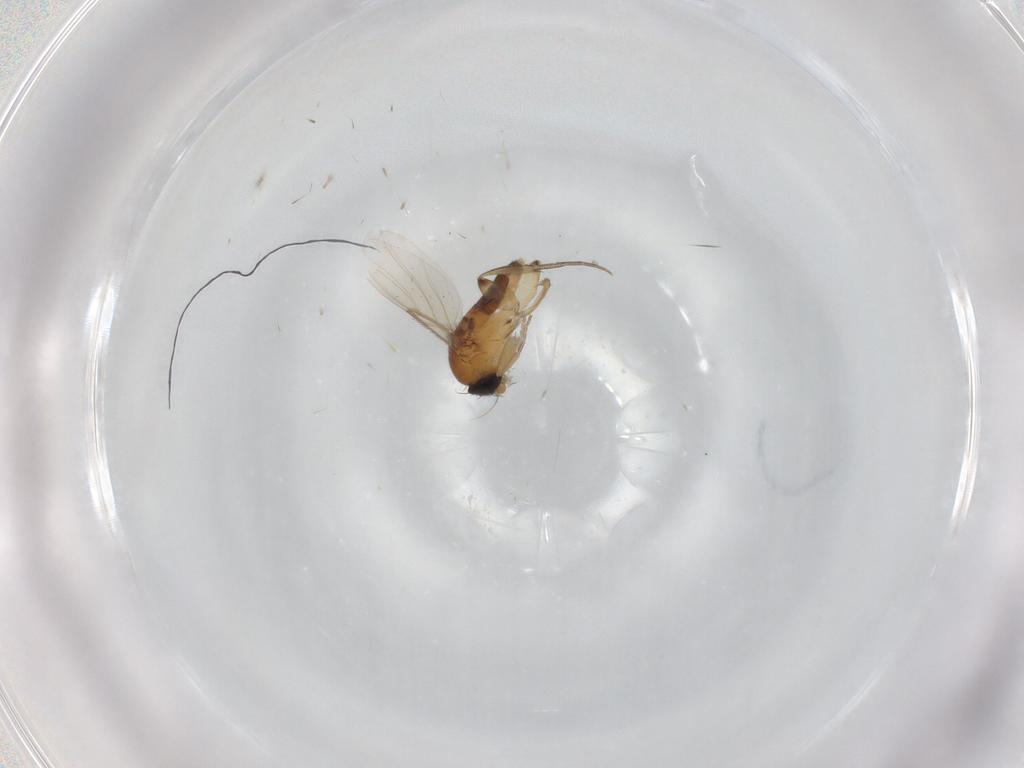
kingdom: Animalia
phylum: Arthropoda
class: Insecta
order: Diptera
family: Phoridae
